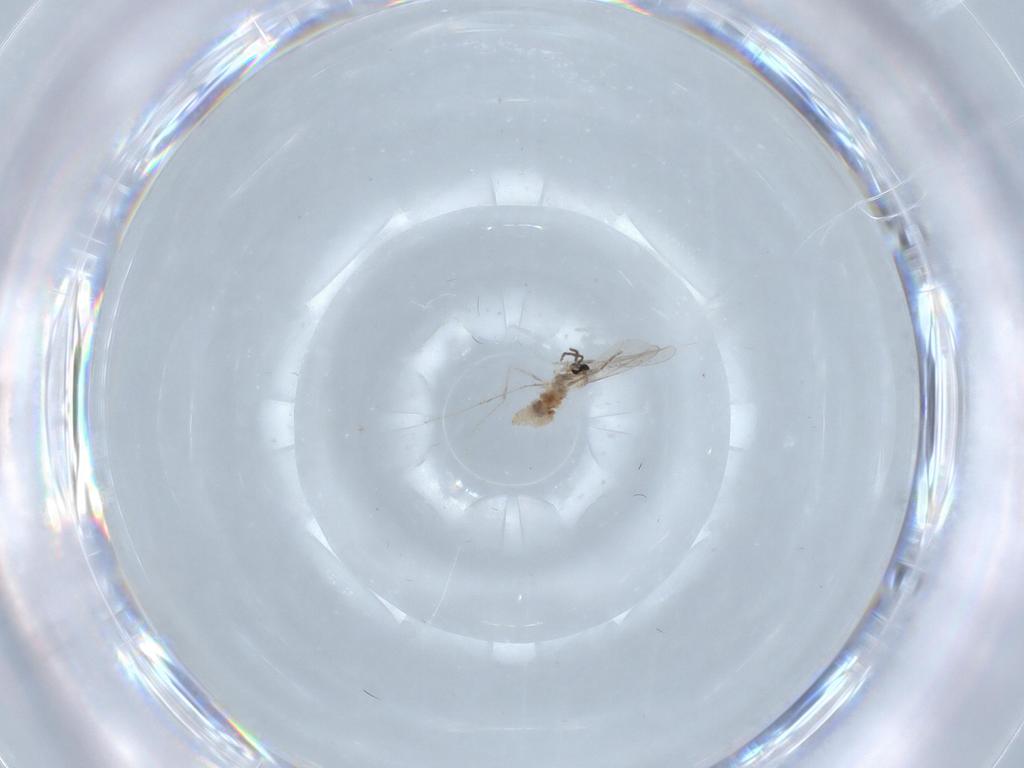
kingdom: Animalia
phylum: Arthropoda
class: Insecta
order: Diptera
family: Cecidomyiidae
